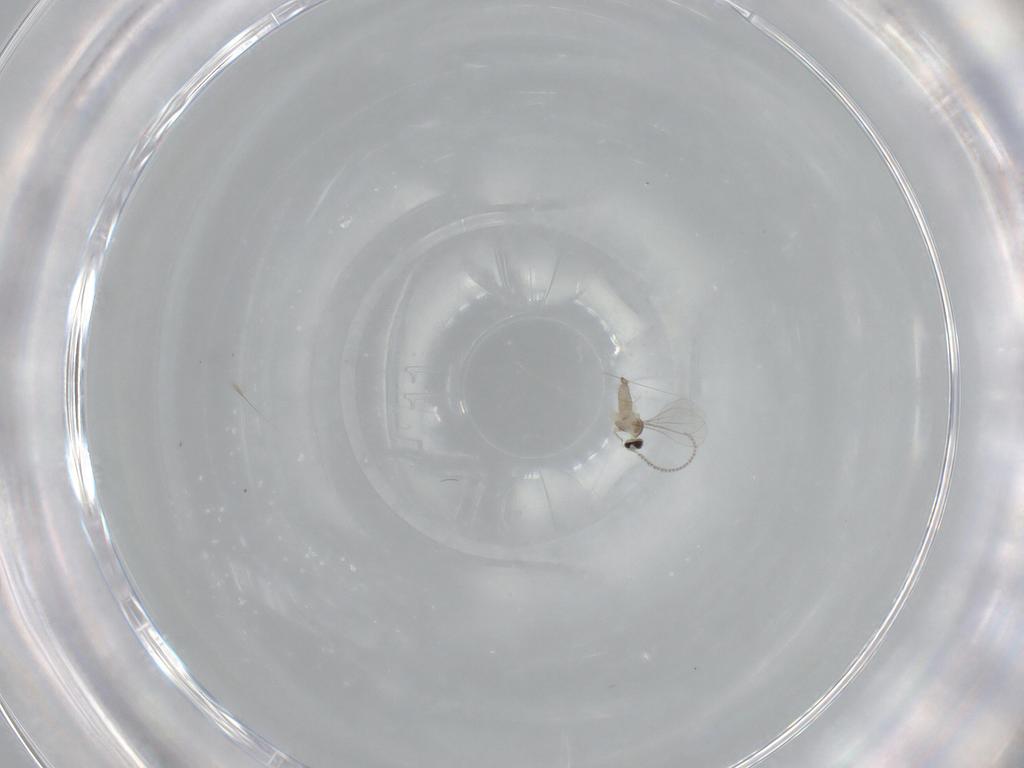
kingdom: Animalia
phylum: Arthropoda
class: Insecta
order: Diptera
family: Cecidomyiidae
